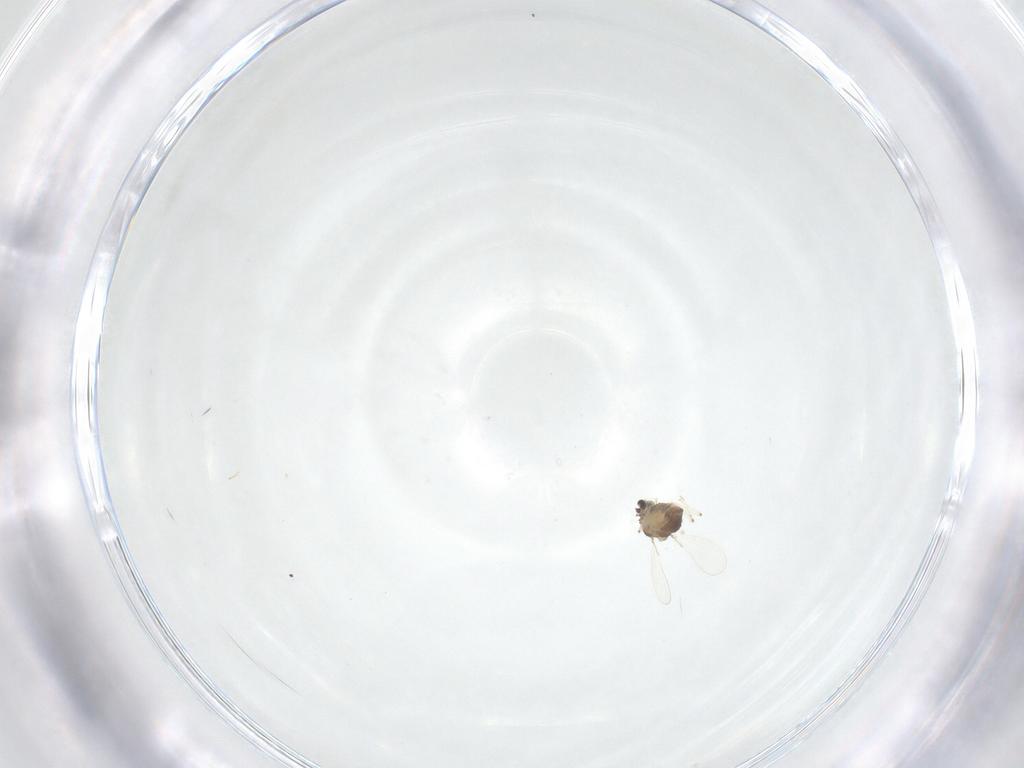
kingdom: Animalia
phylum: Arthropoda
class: Insecta
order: Diptera
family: Chironomidae
